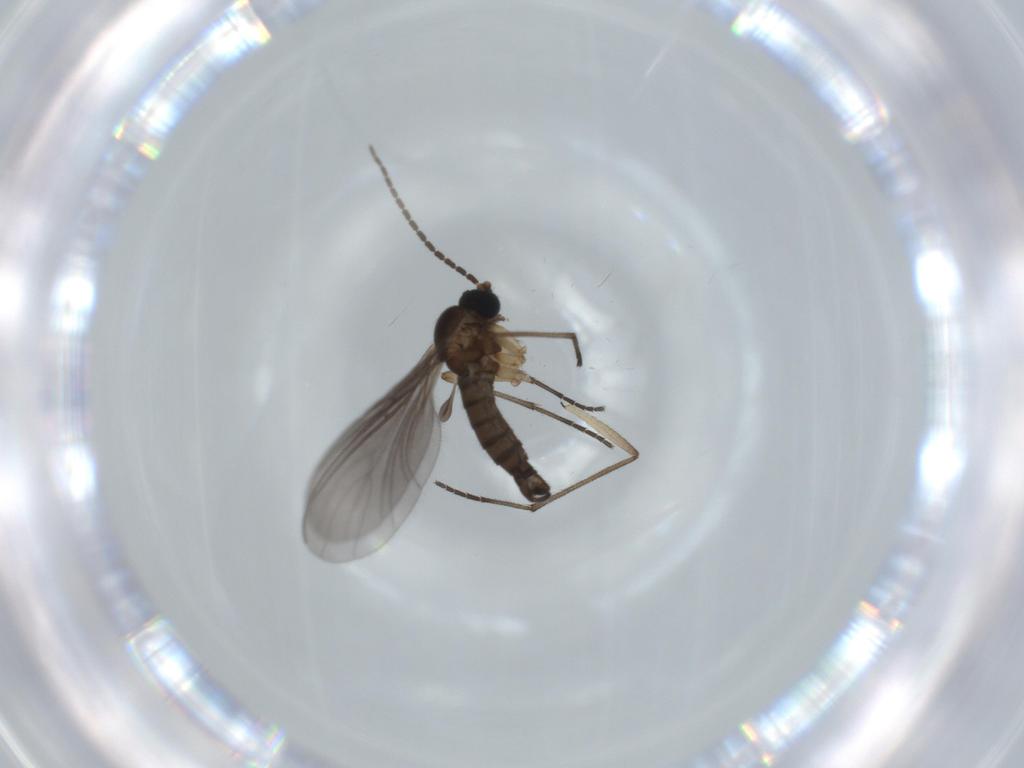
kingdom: Animalia
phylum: Arthropoda
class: Insecta
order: Diptera
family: Sciaridae
